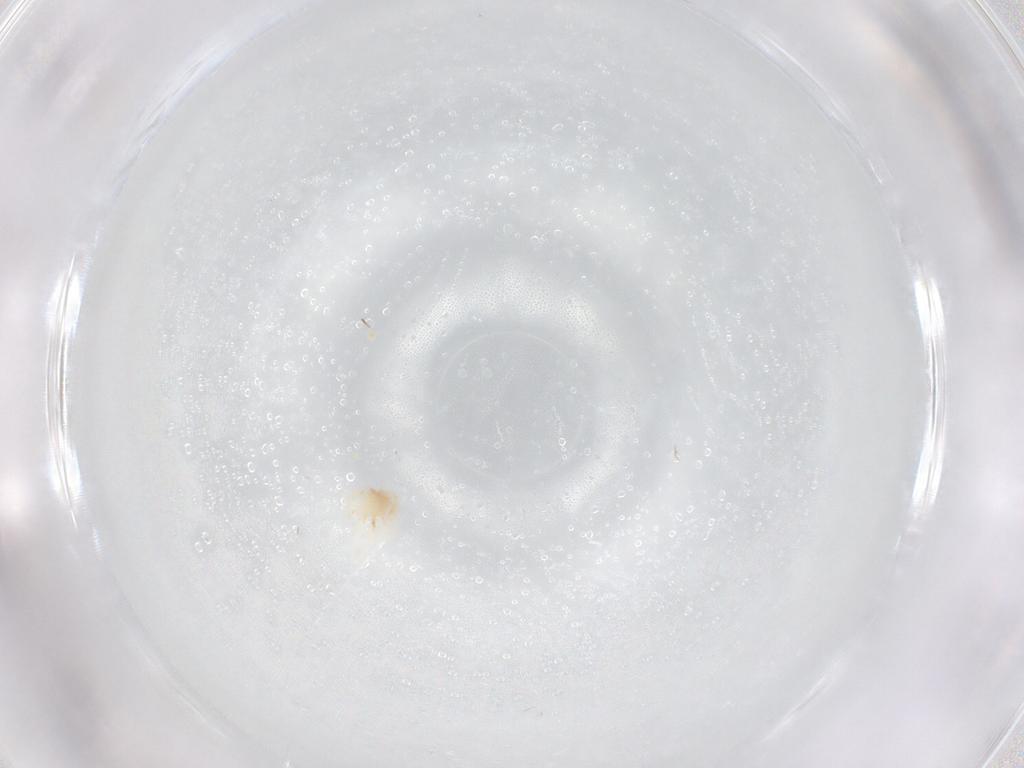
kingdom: Animalia
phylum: Arthropoda
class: Arachnida
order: Trombidiformes
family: Anystidae
